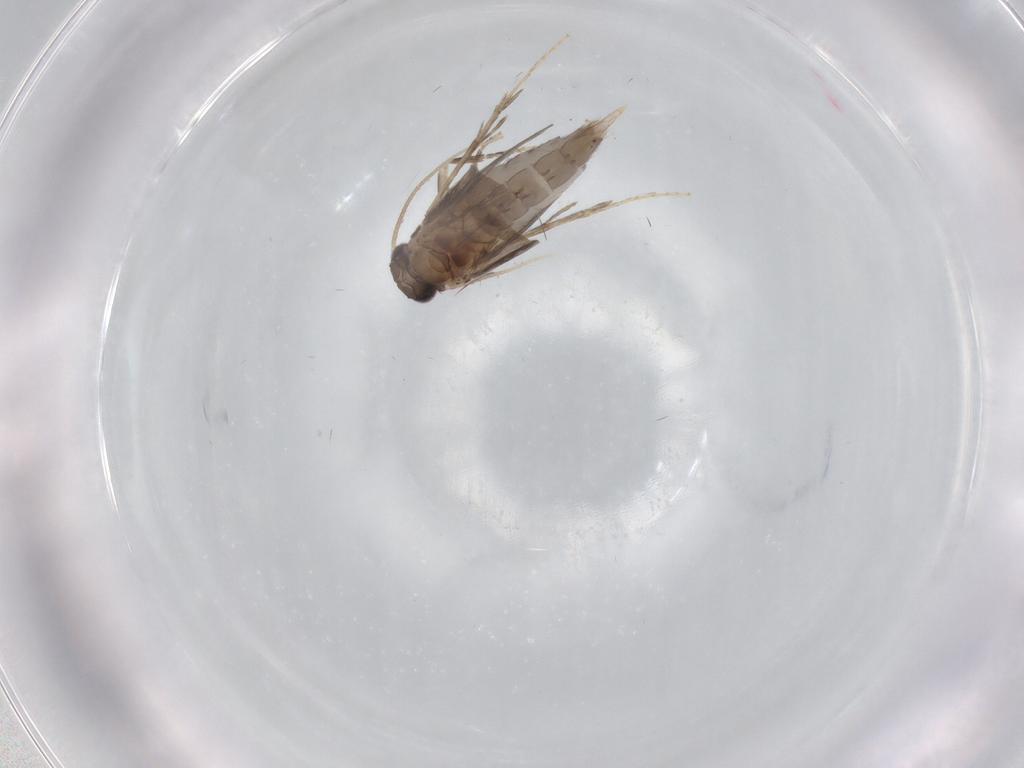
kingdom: Animalia
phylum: Arthropoda
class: Insecta
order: Trichoptera
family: Hydroptilidae
